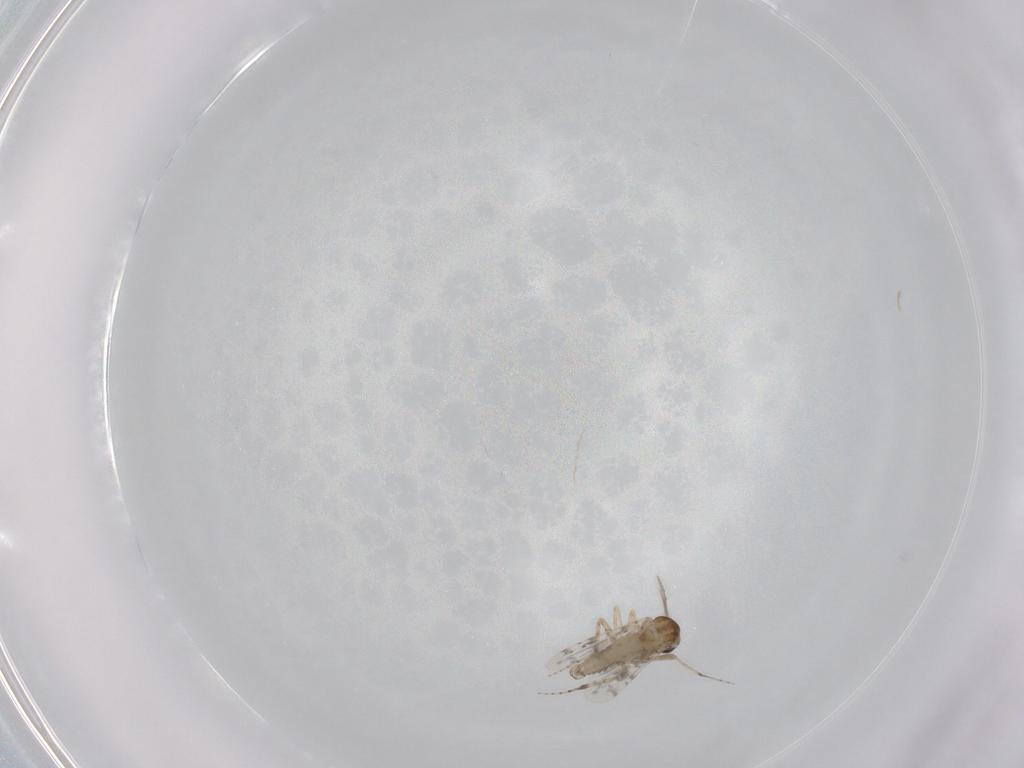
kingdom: Animalia
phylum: Arthropoda
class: Insecta
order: Diptera
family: Ceratopogonidae
